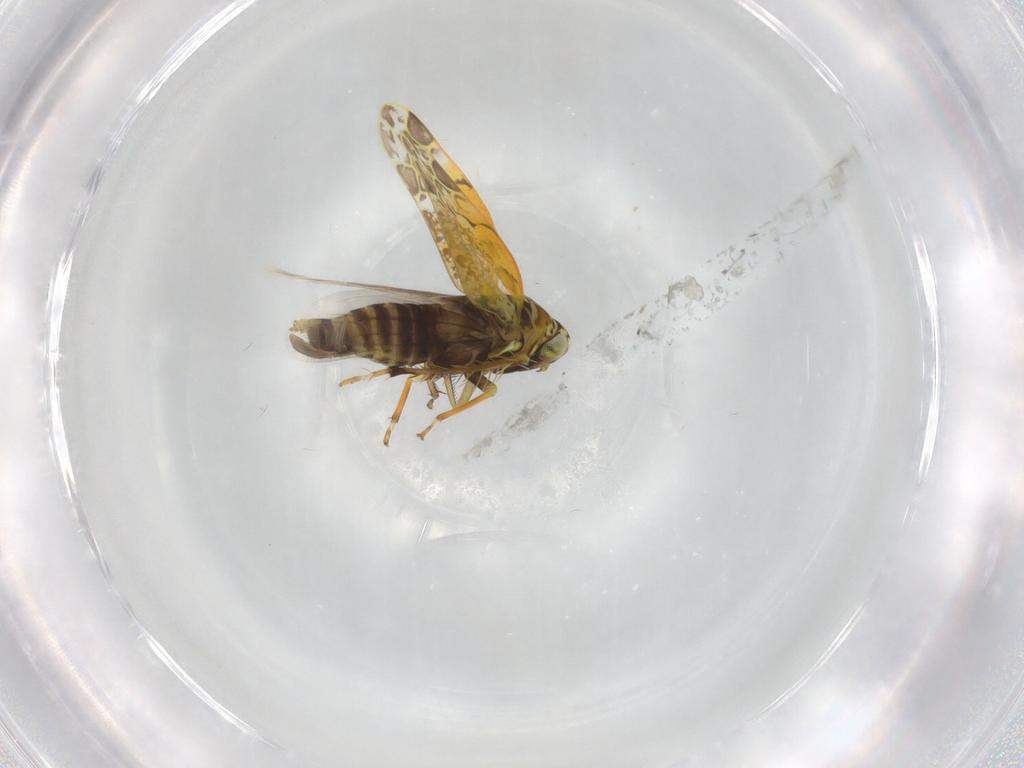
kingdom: Animalia
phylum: Arthropoda
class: Insecta
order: Hemiptera
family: Cicadellidae
